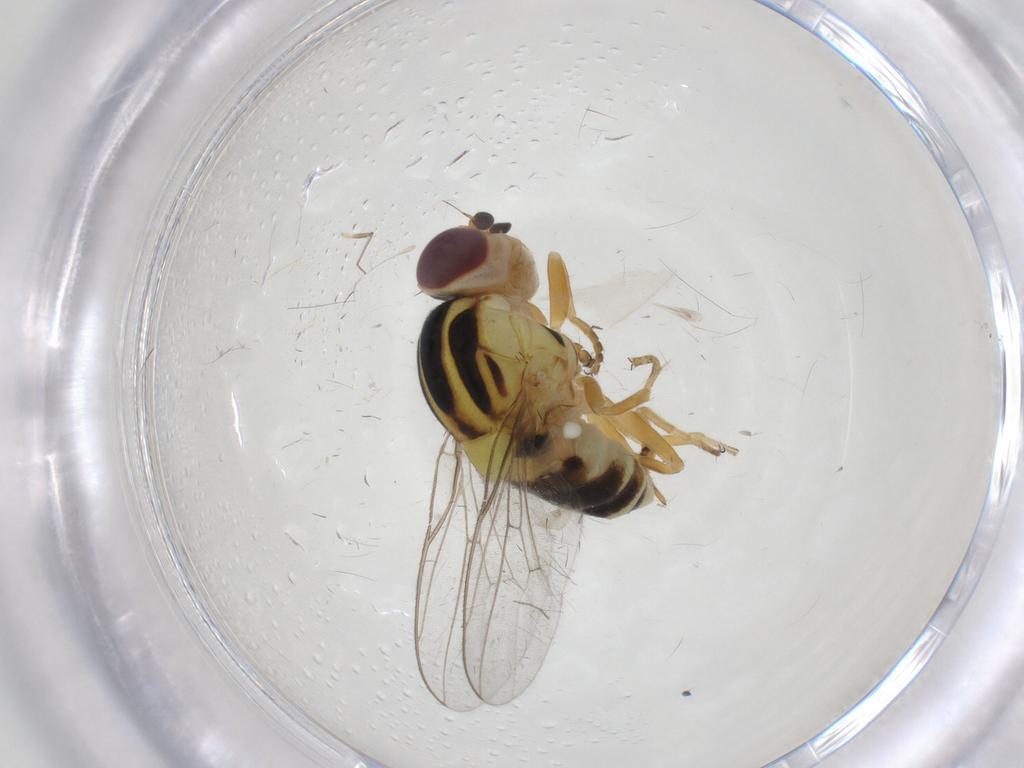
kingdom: Animalia
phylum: Arthropoda
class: Insecta
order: Diptera
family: Chloropidae
